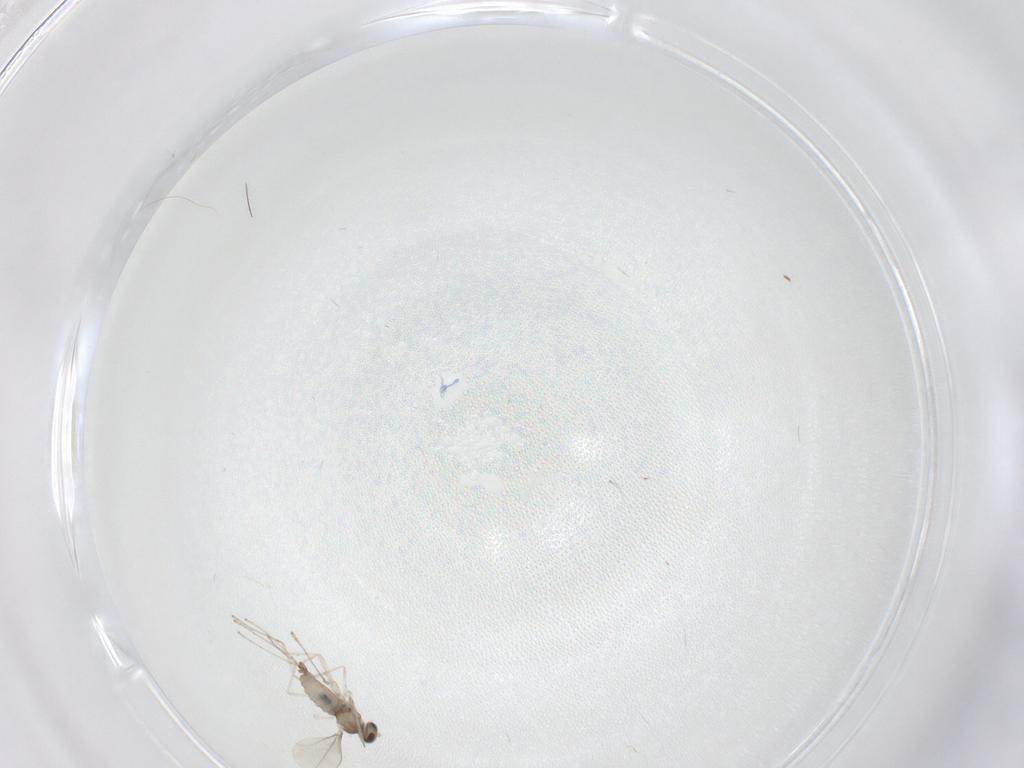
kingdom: Animalia
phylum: Arthropoda
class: Insecta
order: Diptera
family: Cecidomyiidae
